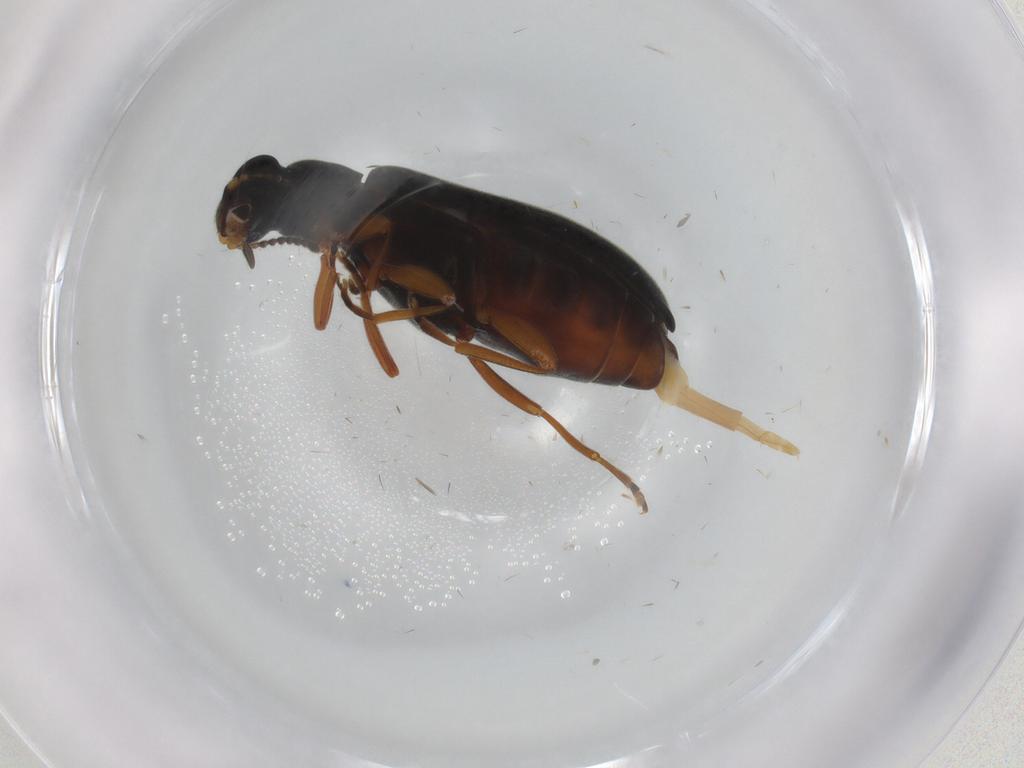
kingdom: Animalia
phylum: Arthropoda
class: Insecta
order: Coleoptera
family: Mycteridae
